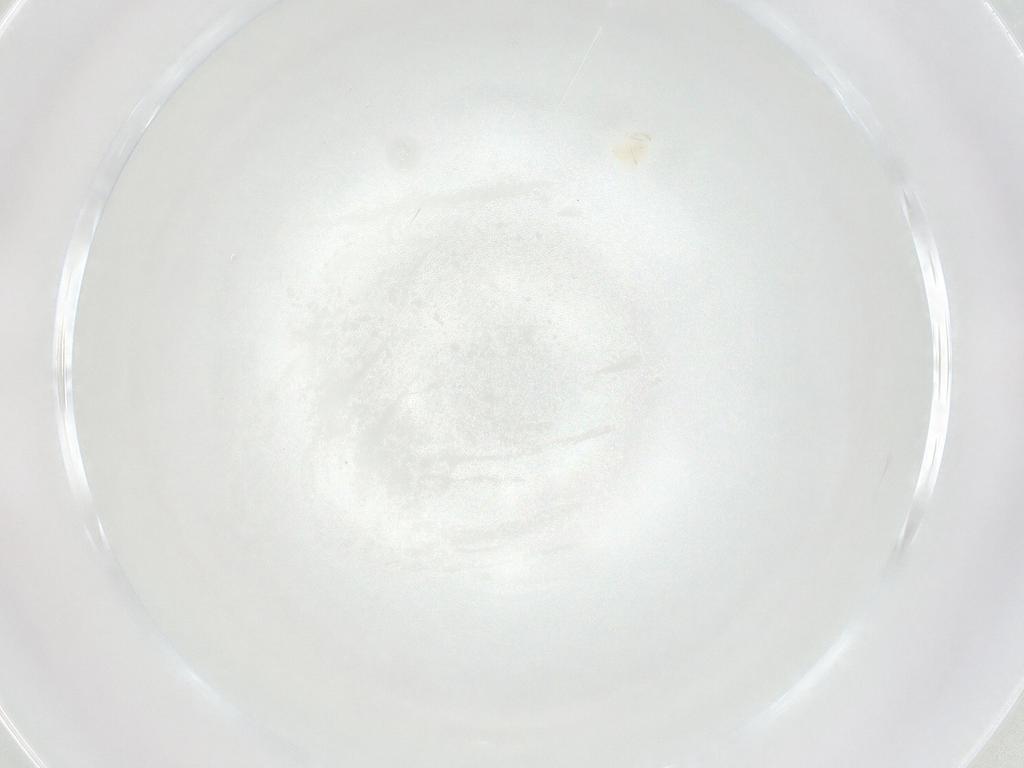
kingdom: Animalia
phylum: Arthropoda
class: Arachnida
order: Trombidiformes
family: Anystidae
